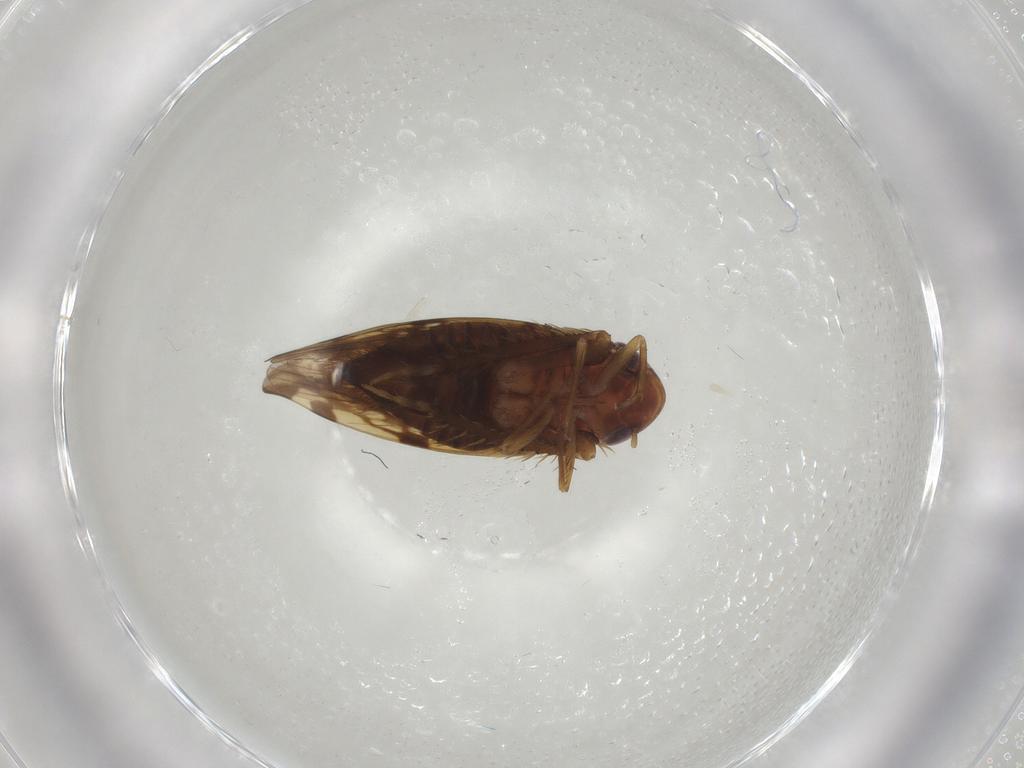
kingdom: Animalia
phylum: Arthropoda
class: Insecta
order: Hemiptera
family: Cicadellidae
